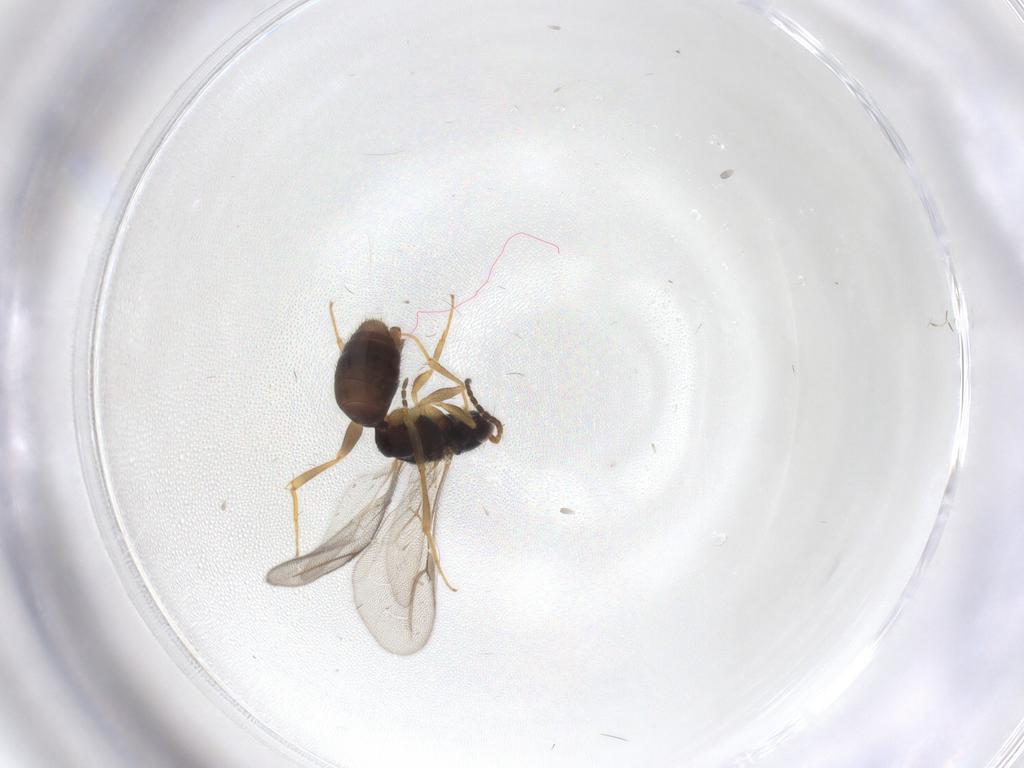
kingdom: Animalia
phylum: Arthropoda
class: Insecta
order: Hymenoptera
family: Bethylidae
